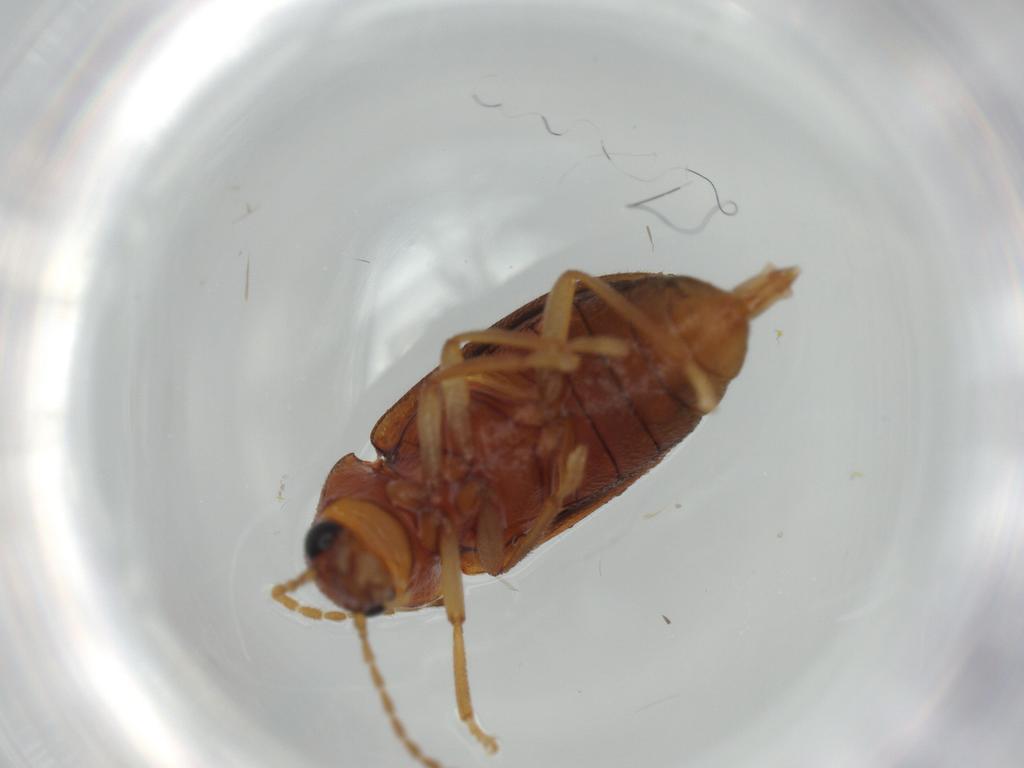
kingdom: Animalia
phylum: Arthropoda
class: Insecta
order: Coleoptera
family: Ptilodactylidae
